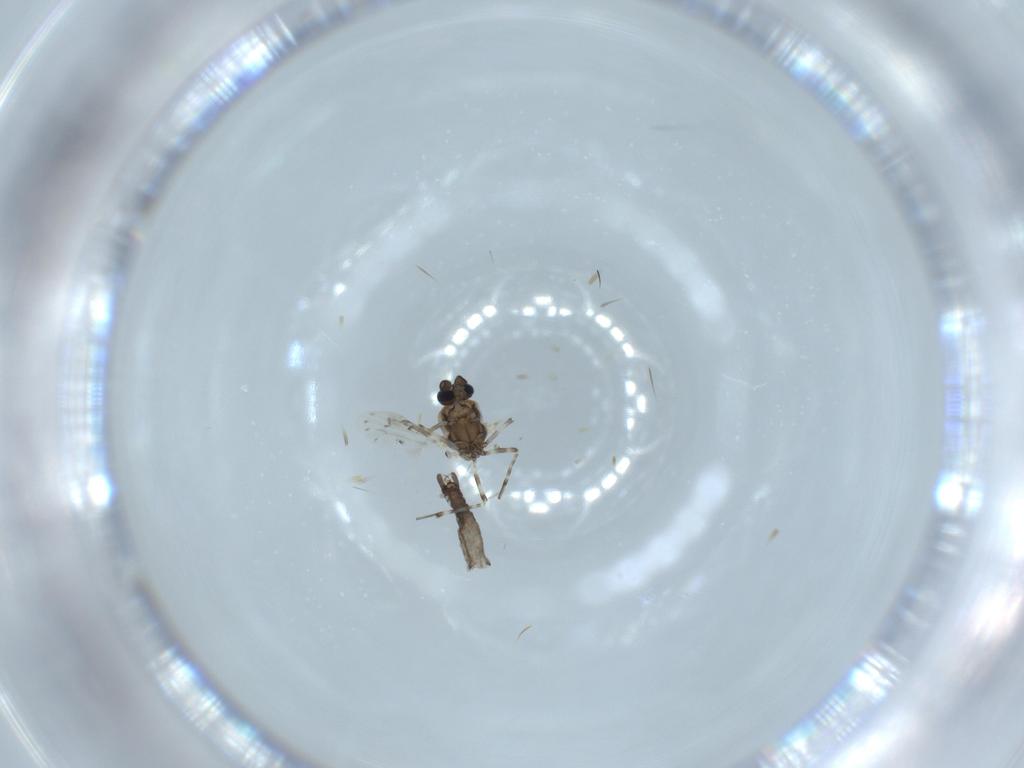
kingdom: Animalia
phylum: Arthropoda
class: Insecta
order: Diptera
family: Ceratopogonidae
